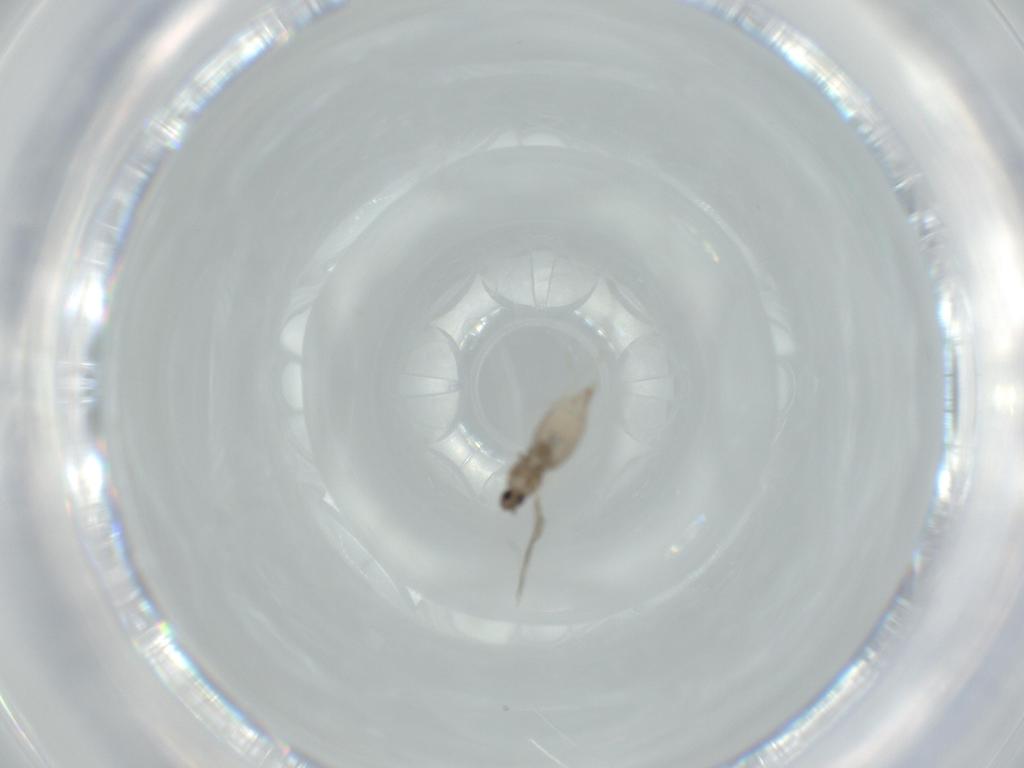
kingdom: Animalia
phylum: Arthropoda
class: Insecta
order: Diptera
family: Cecidomyiidae
